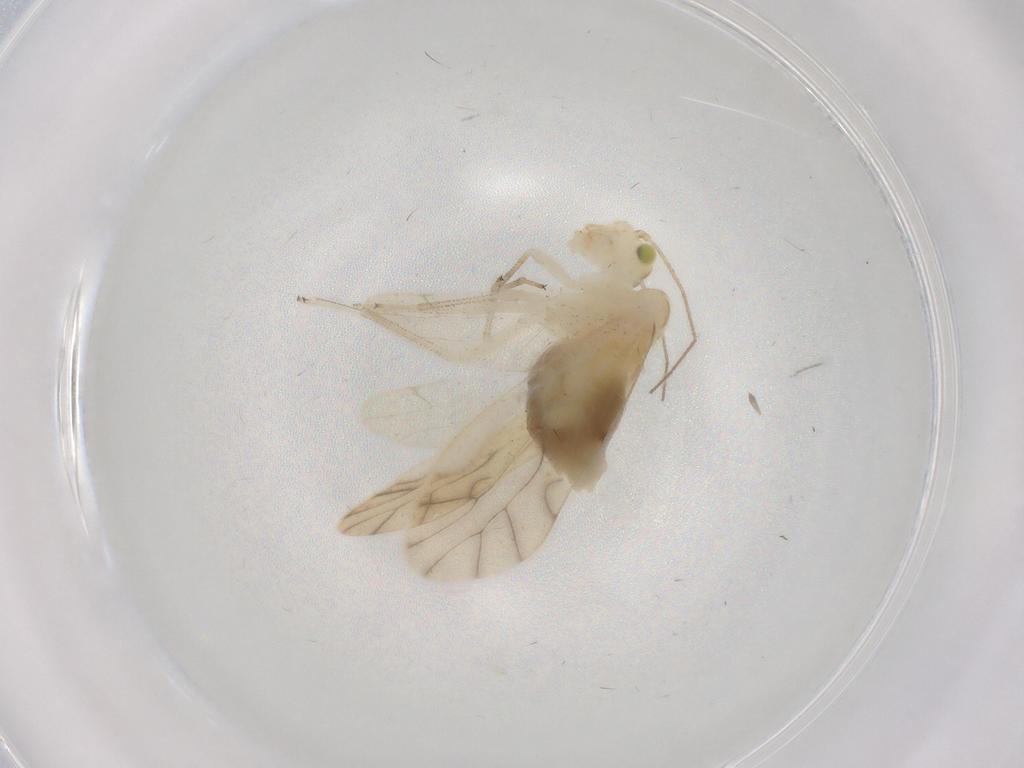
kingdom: Animalia
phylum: Arthropoda
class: Insecta
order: Psocodea
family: Caeciliusidae
